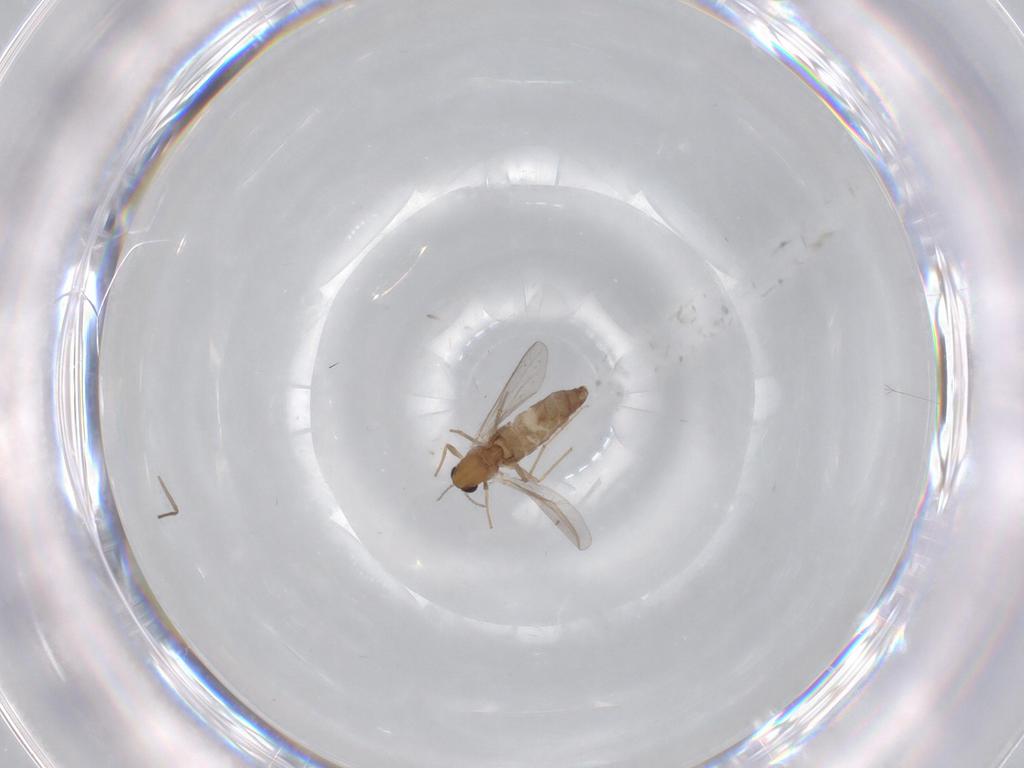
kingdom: Animalia
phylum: Arthropoda
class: Insecta
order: Diptera
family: Chironomidae
